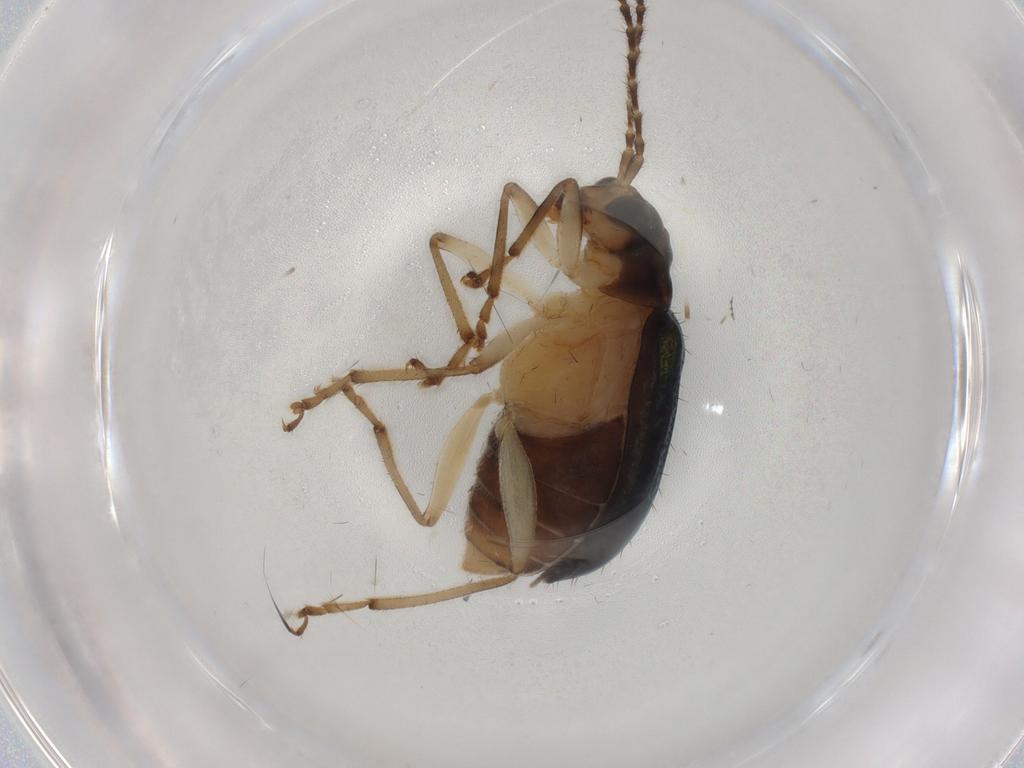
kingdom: Animalia
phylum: Arthropoda
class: Insecta
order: Coleoptera
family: Chrysomelidae
